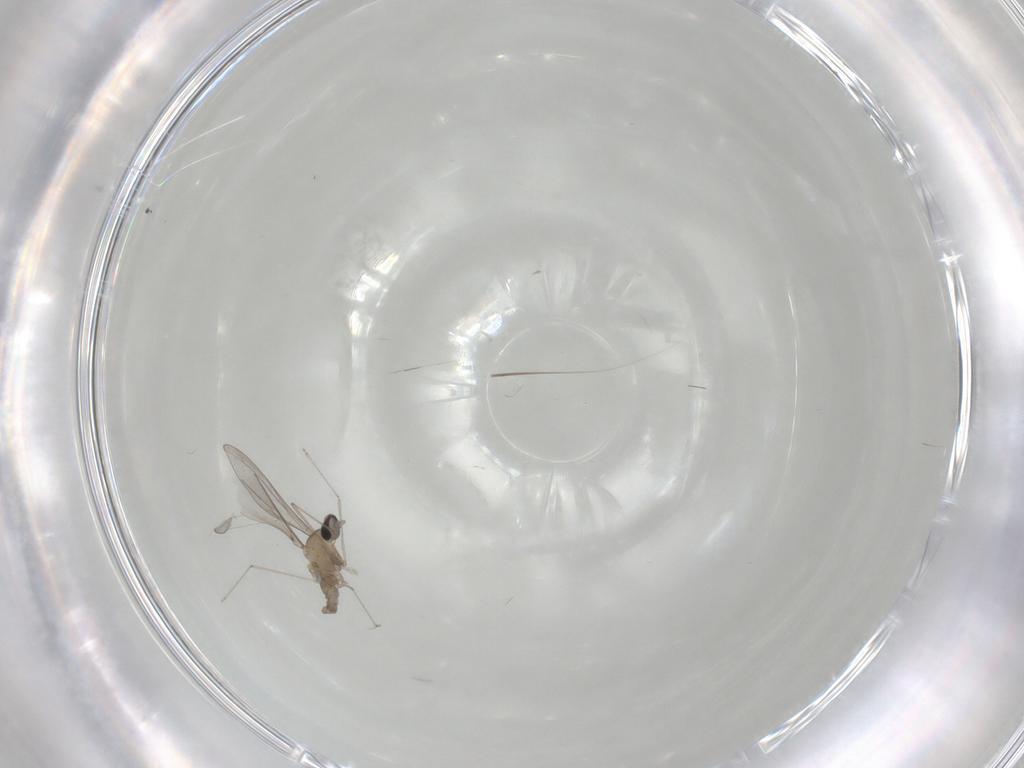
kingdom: Animalia
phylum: Arthropoda
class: Insecta
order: Diptera
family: Cecidomyiidae
